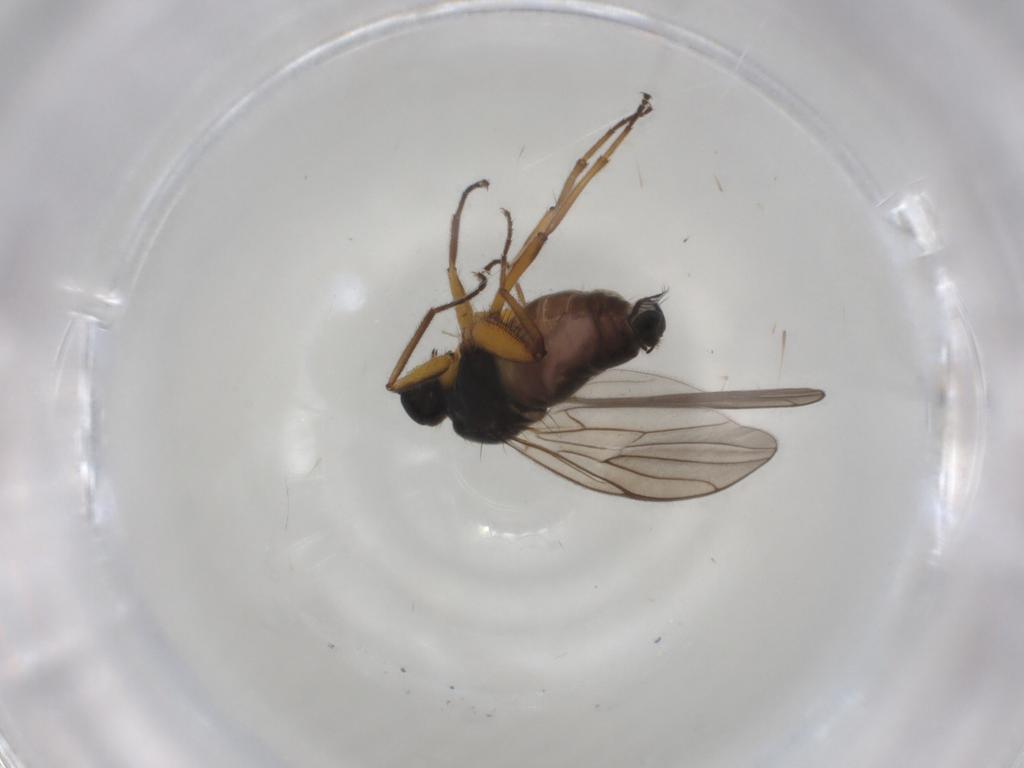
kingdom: Animalia
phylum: Arthropoda
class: Insecta
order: Diptera
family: Hybotidae
